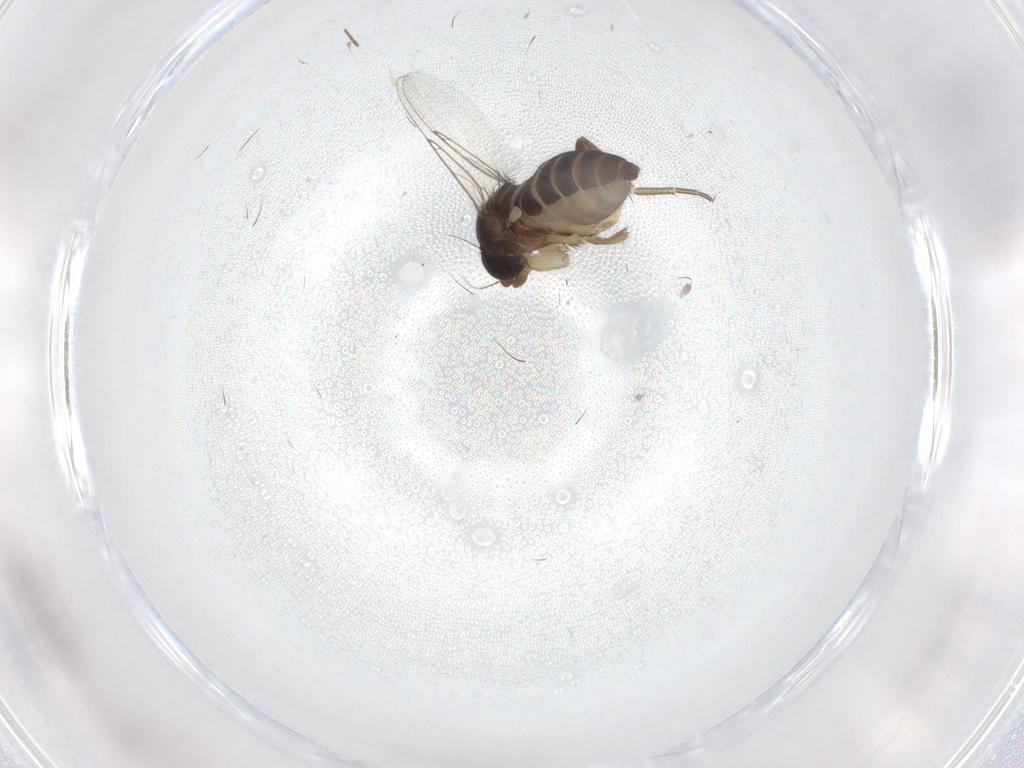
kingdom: Animalia
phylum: Arthropoda
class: Insecta
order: Diptera
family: Phoridae
